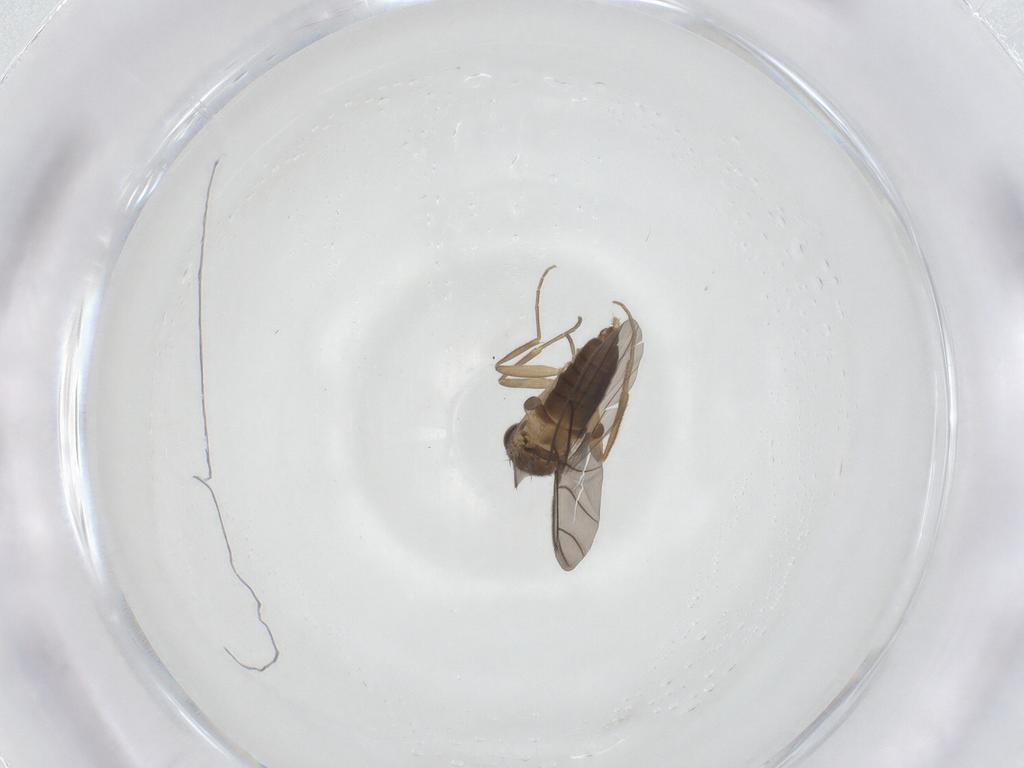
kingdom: Animalia
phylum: Arthropoda
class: Insecta
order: Diptera
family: Phoridae
